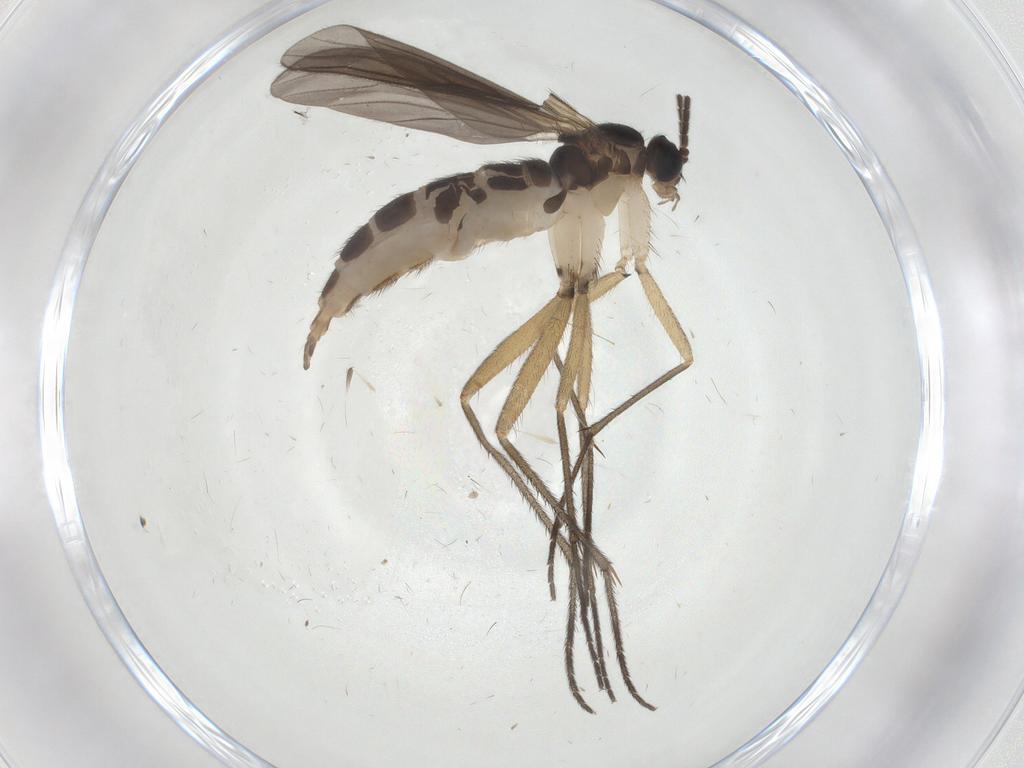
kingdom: Animalia
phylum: Arthropoda
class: Insecta
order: Diptera
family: Sciaridae
